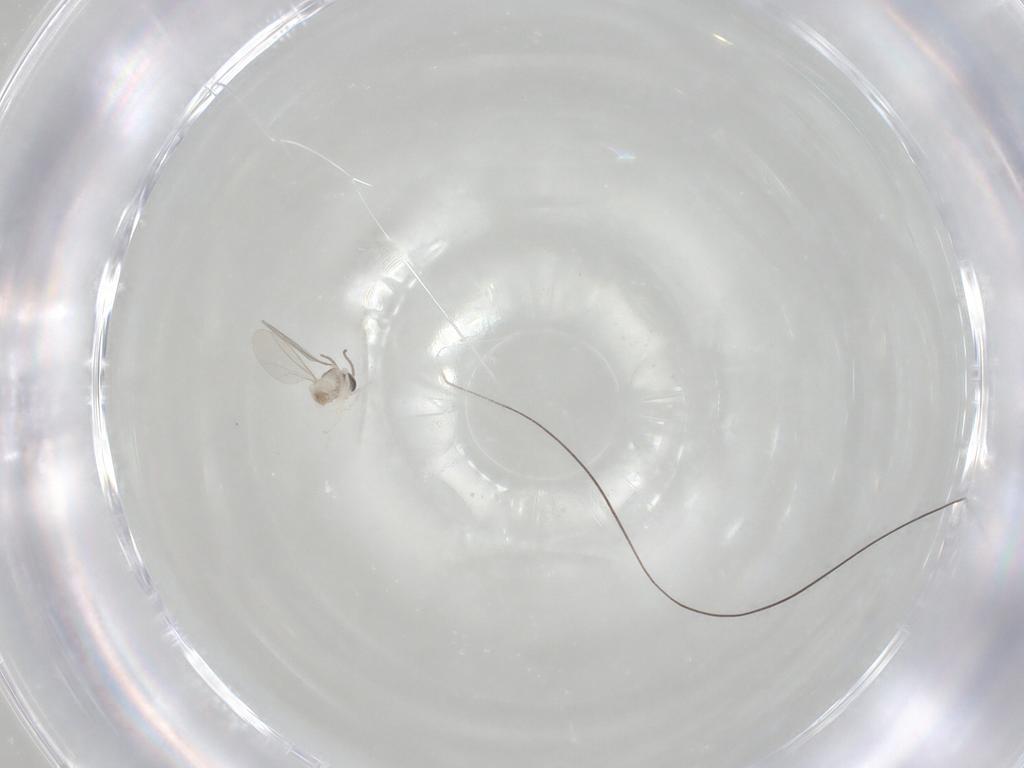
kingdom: Animalia
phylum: Arthropoda
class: Insecta
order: Diptera
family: Cecidomyiidae
